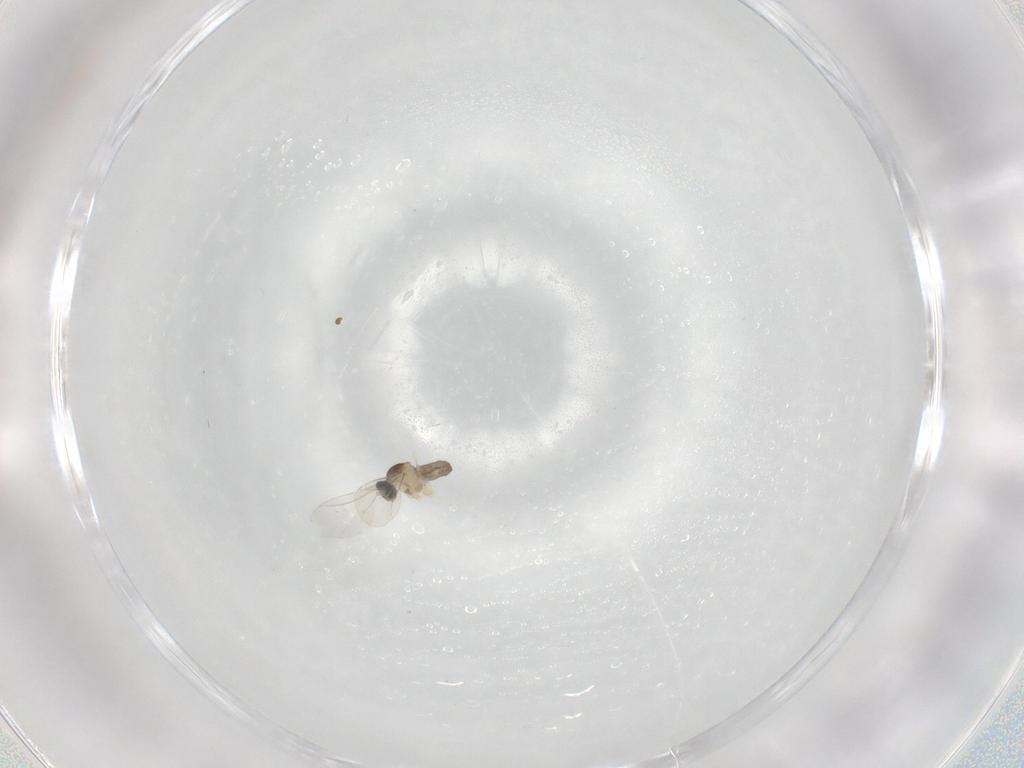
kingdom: Animalia
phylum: Arthropoda
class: Insecta
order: Diptera
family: Cecidomyiidae
